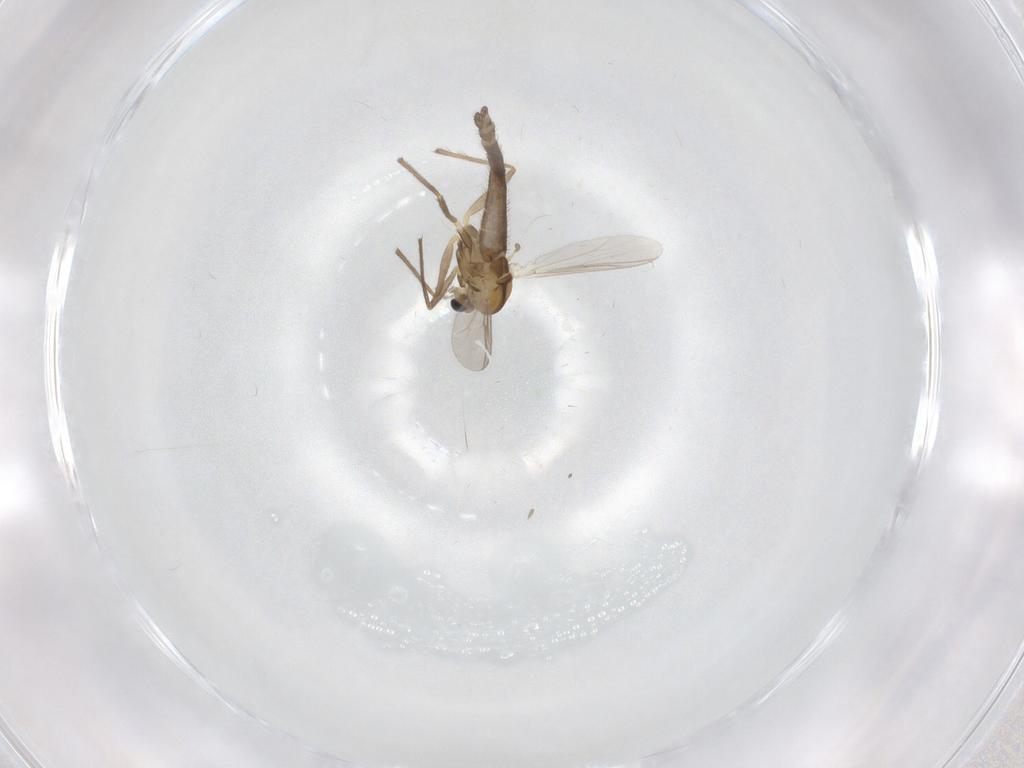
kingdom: Animalia
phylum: Arthropoda
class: Insecta
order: Diptera
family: Chironomidae
